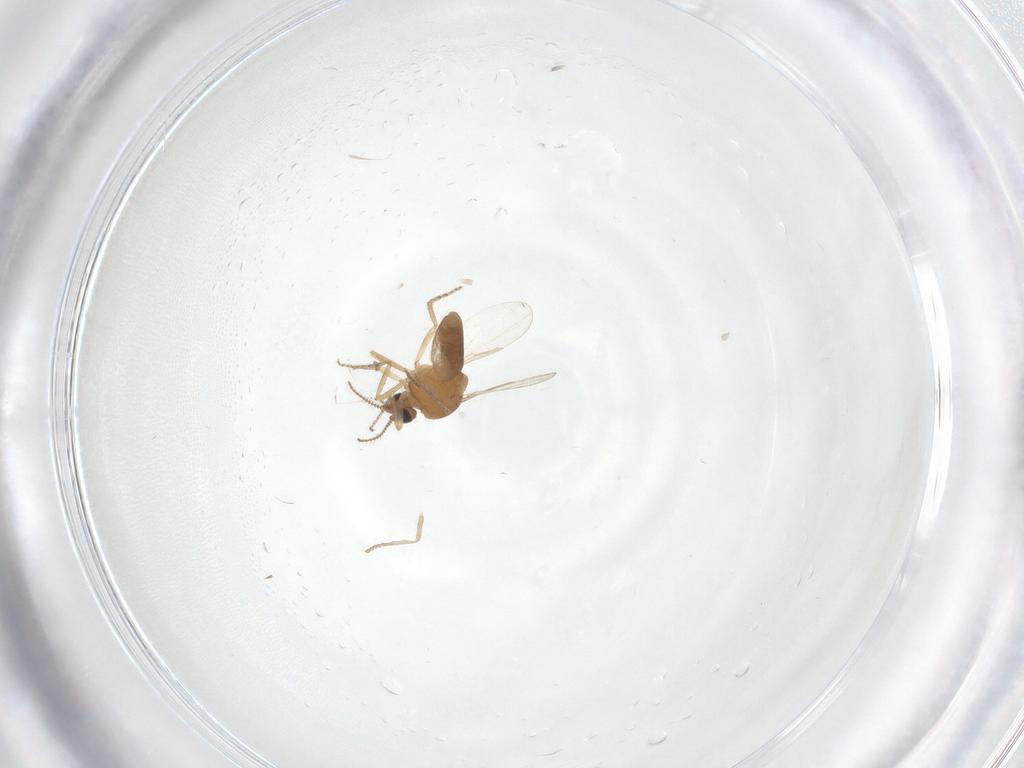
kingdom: Animalia
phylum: Arthropoda
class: Insecta
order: Diptera
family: Ceratopogonidae
